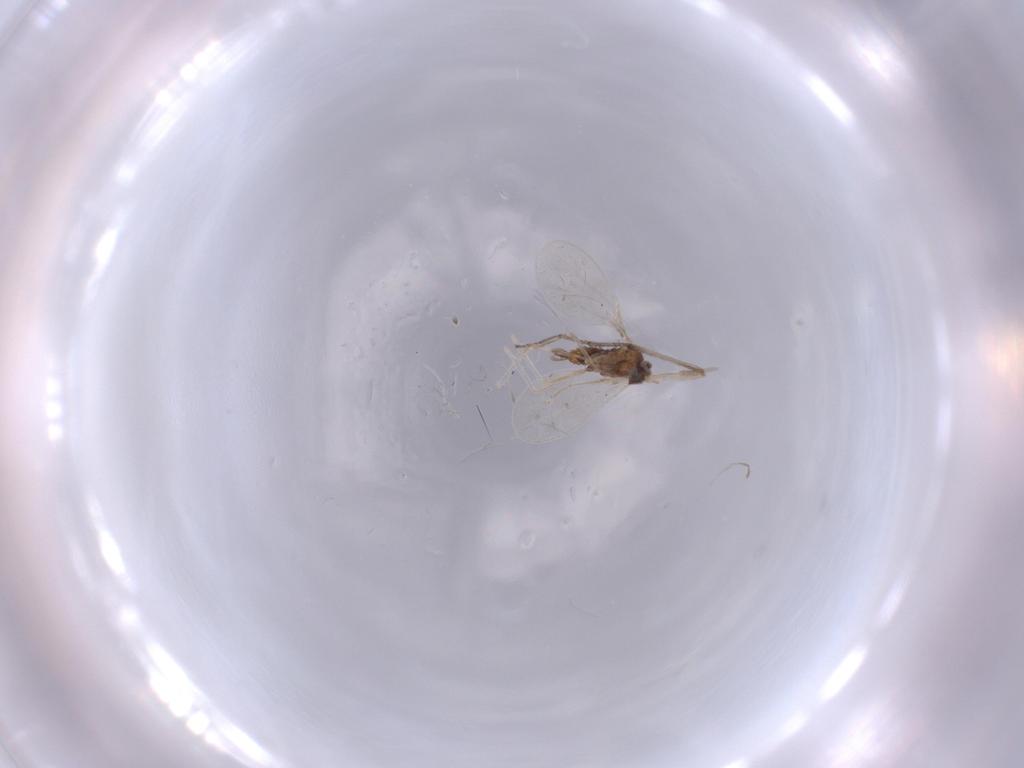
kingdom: Animalia
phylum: Arthropoda
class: Insecta
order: Diptera
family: Cecidomyiidae
